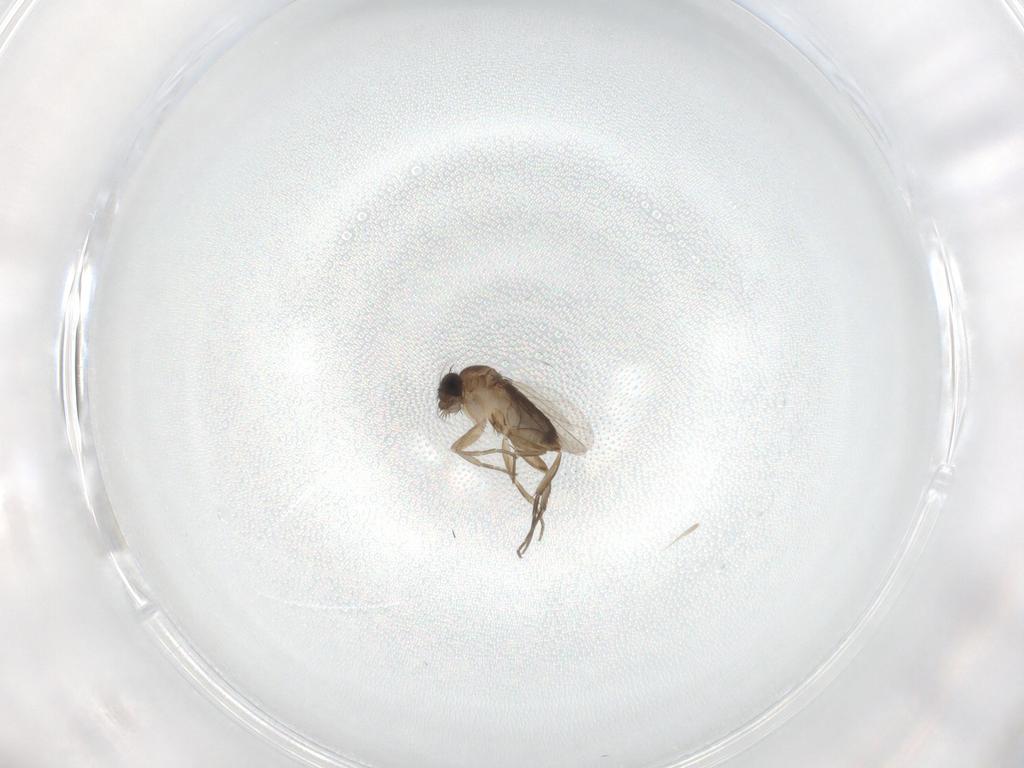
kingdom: Animalia
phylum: Arthropoda
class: Insecta
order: Diptera
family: Phoridae
